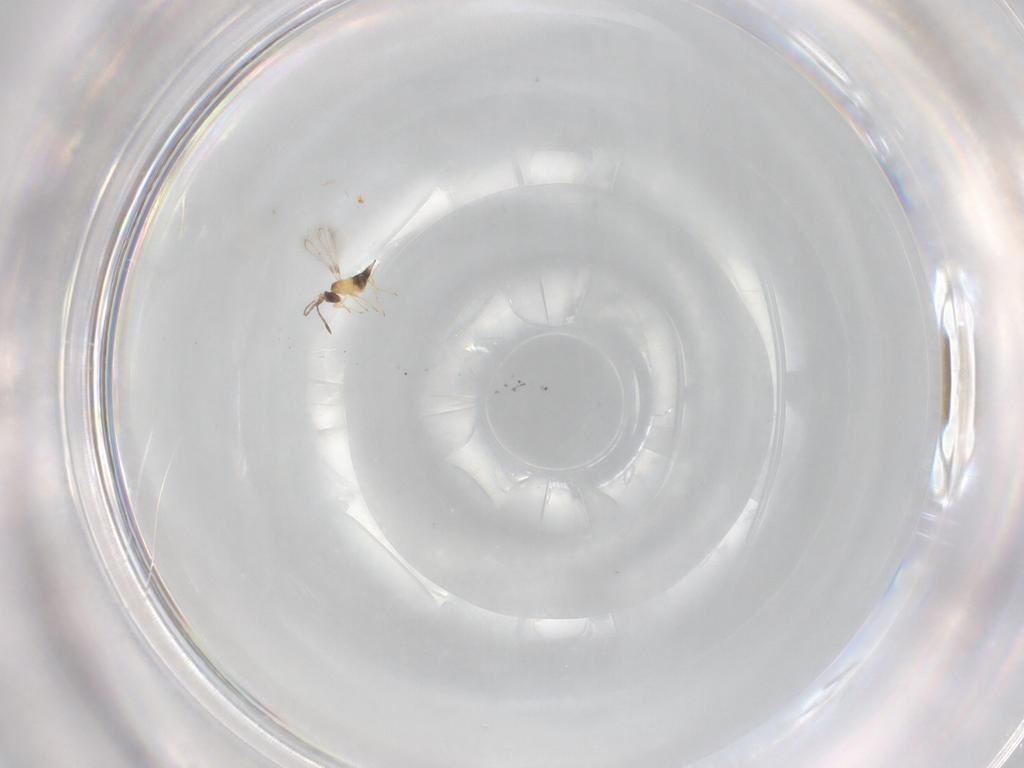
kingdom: Animalia
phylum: Arthropoda
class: Insecta
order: Hymenoptera
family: Mymaridae
